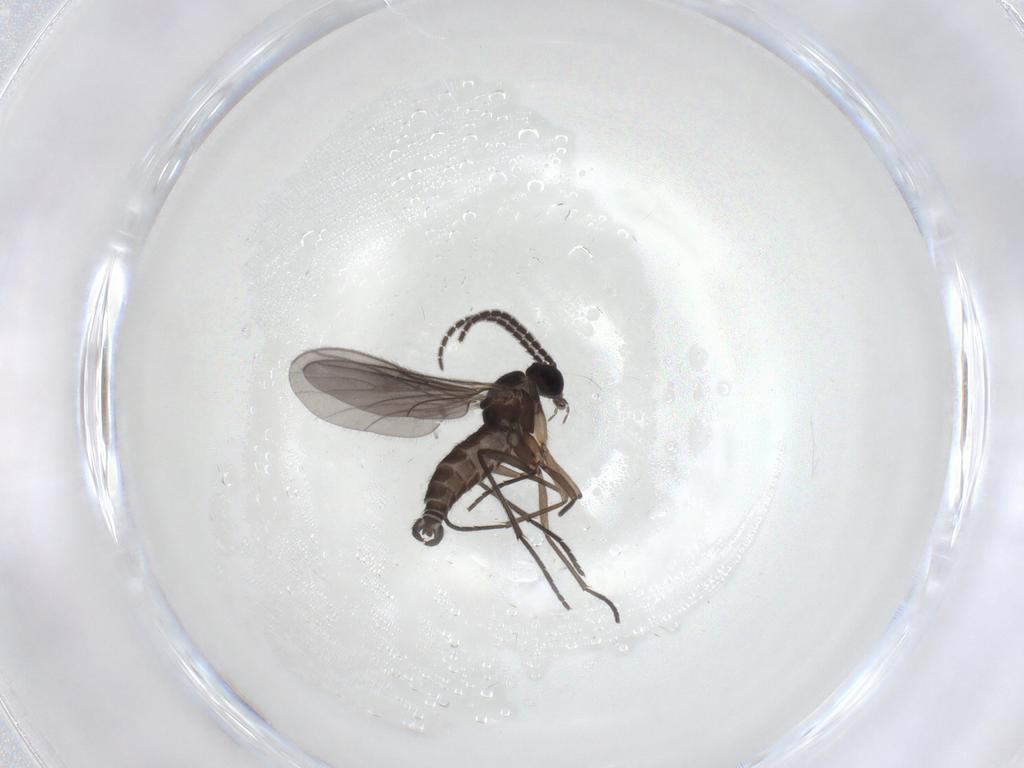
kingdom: Animalia
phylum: Arthropoda
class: Insecta
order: Diptera
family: Sciaridae
